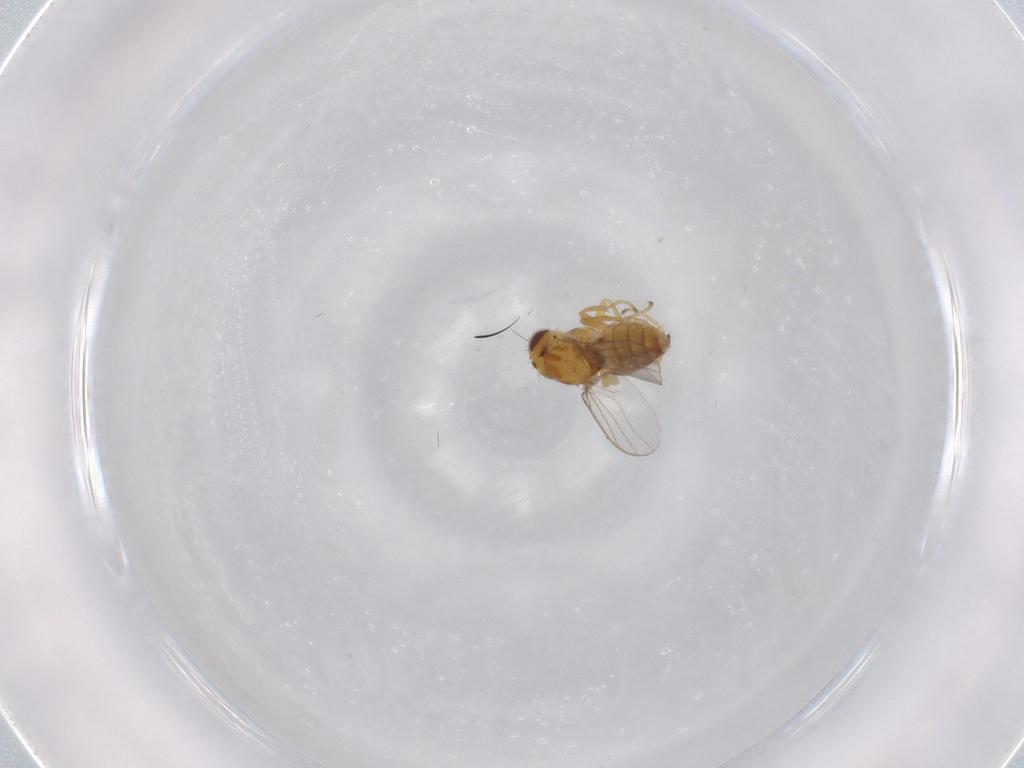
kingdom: Animalia
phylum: Arthropoda
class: Insecta
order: Diptera
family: Chloropidae
